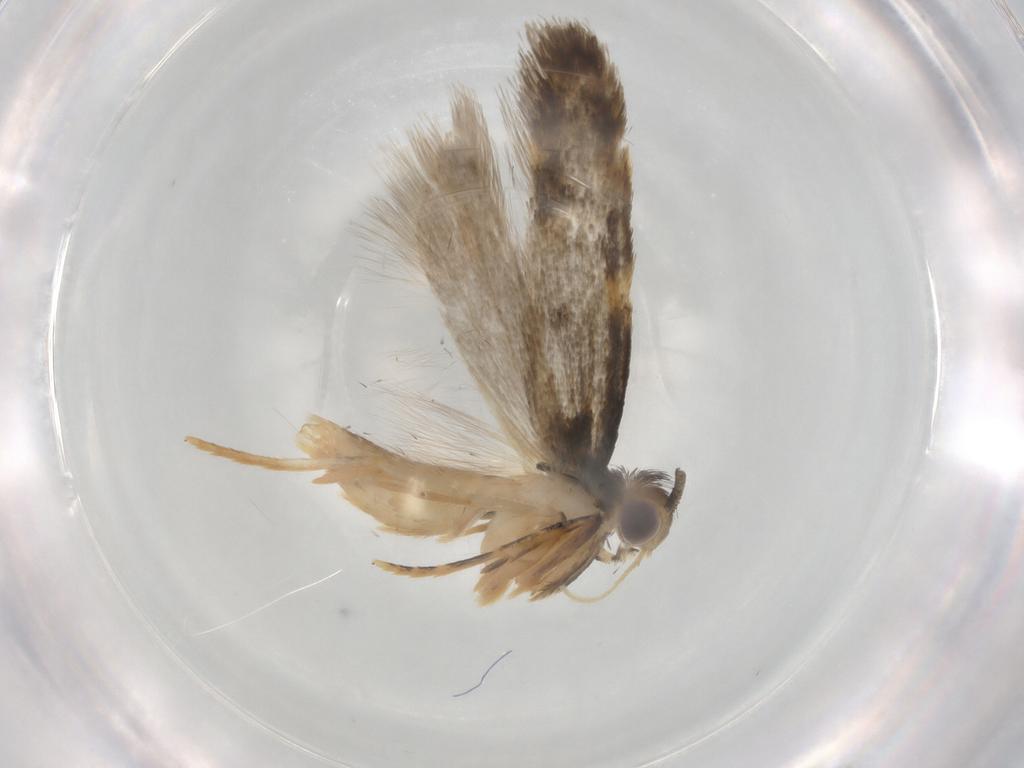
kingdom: Animalia
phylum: Arthropoda
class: Insecta
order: Lepidoptera
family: Autostichidae
